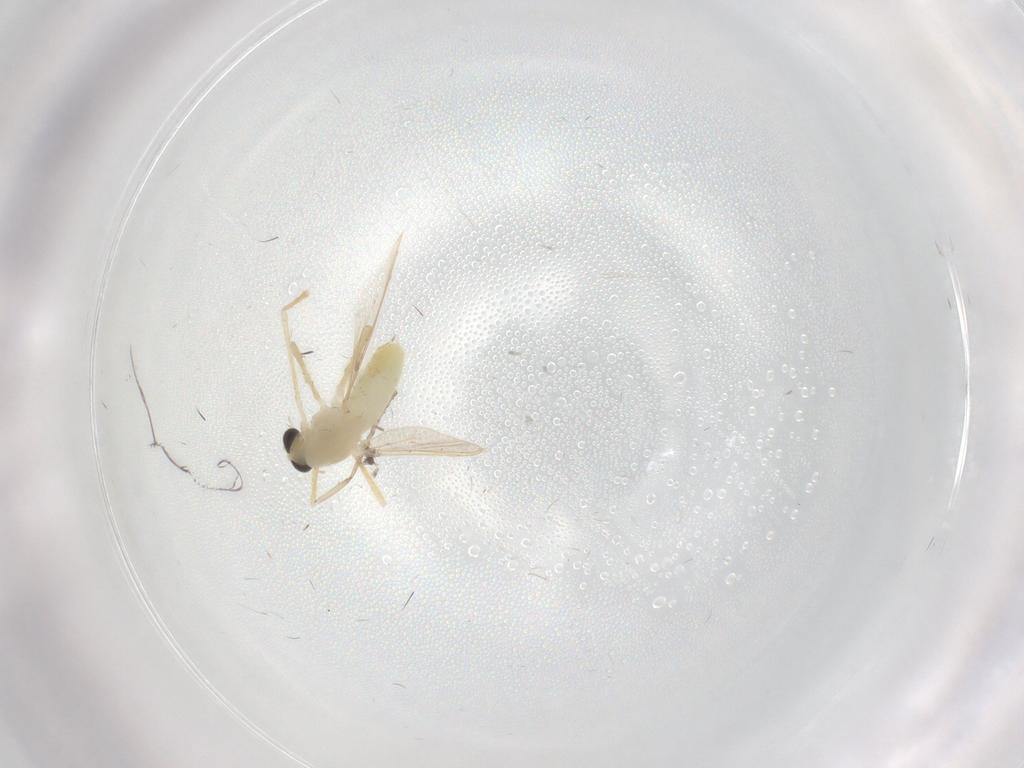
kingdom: Animalia
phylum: Arthropoda
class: Insecta
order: Diptera
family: Chironomidae
